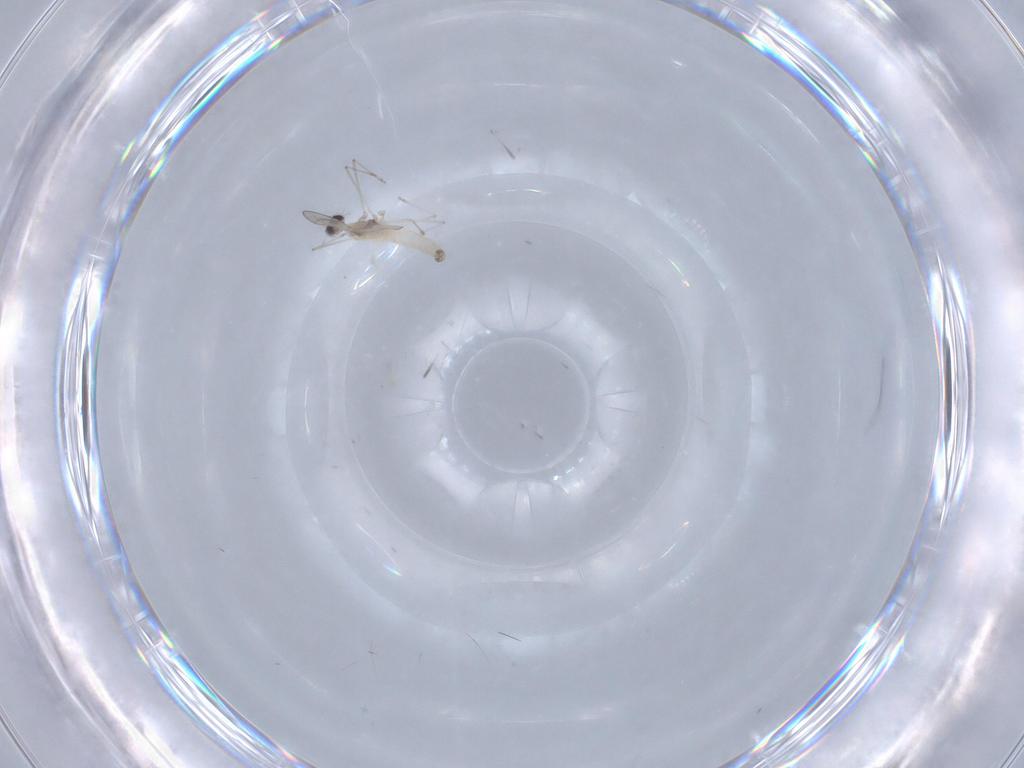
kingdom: Animalia
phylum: Arthropoda
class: Insecta
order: Diptera
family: Cecidomyiidae
